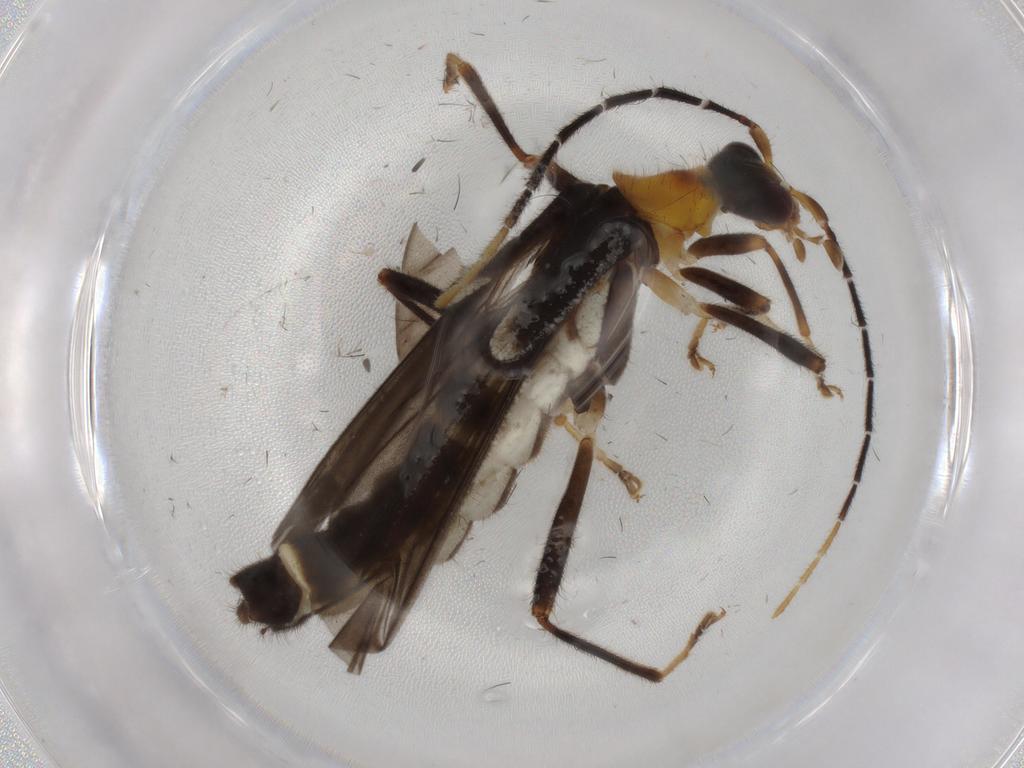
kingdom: Animalia
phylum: Arthropoda
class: Insecta
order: Coleoptera
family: Cantharidae
